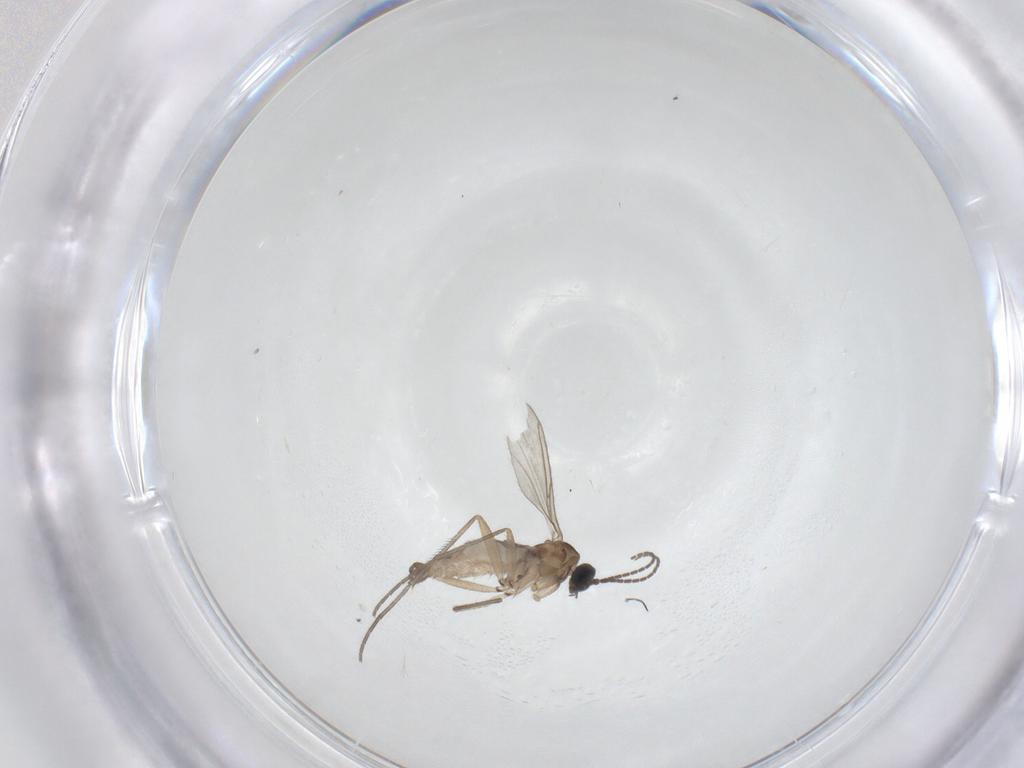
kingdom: Animalia
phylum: Arthropoda
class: Insecta
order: Diptera
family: Sciaridae
